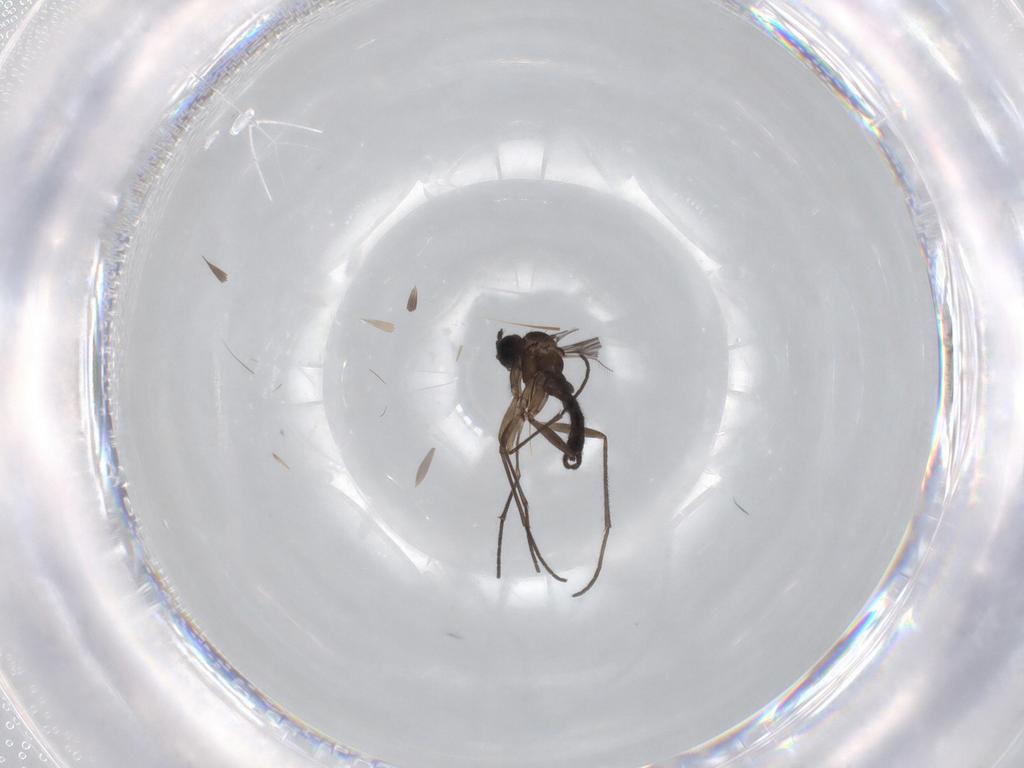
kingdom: Animalia
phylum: Arthropoda
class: Insecta
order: Diptera
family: Sciaridae
